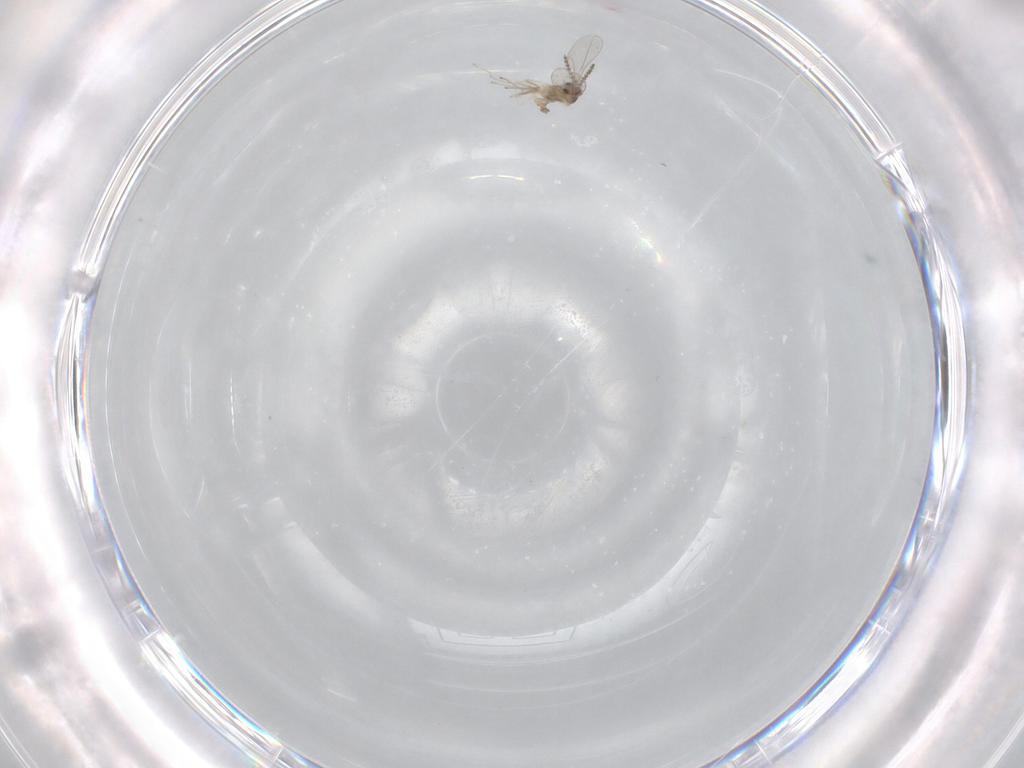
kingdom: Animalia
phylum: Arthropoda
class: Insecta
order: Diptera
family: Cecidomyiidae
